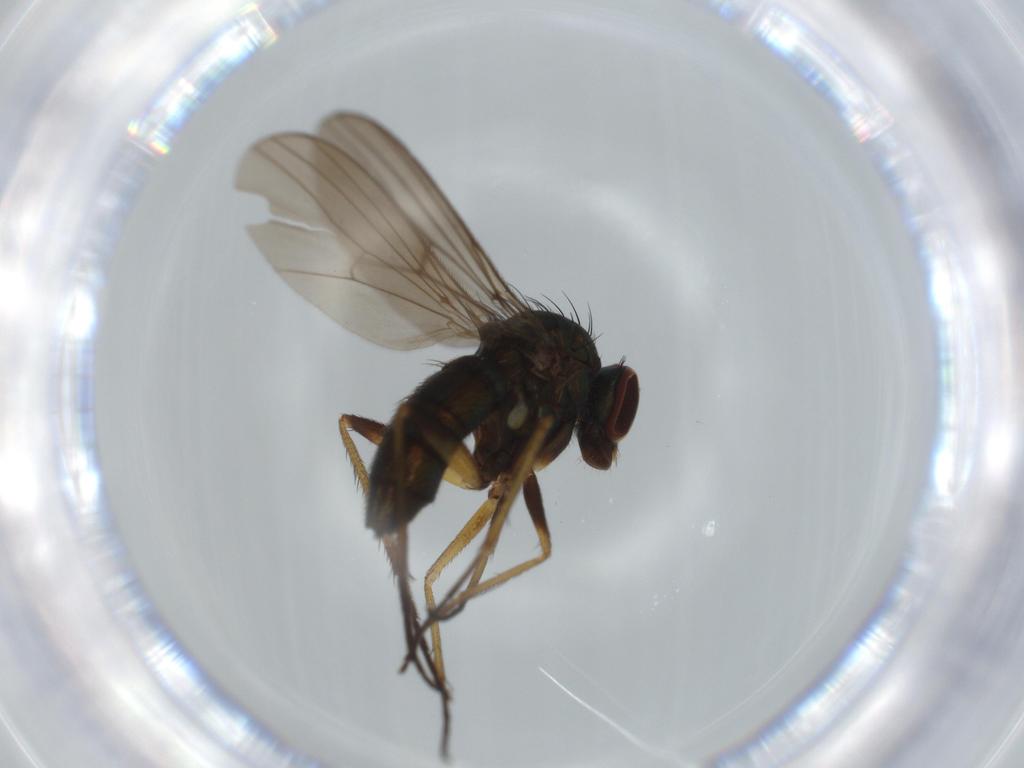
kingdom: Animalia
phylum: Arthropoda
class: Insecta
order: Diptera
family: Dolichopodidae
